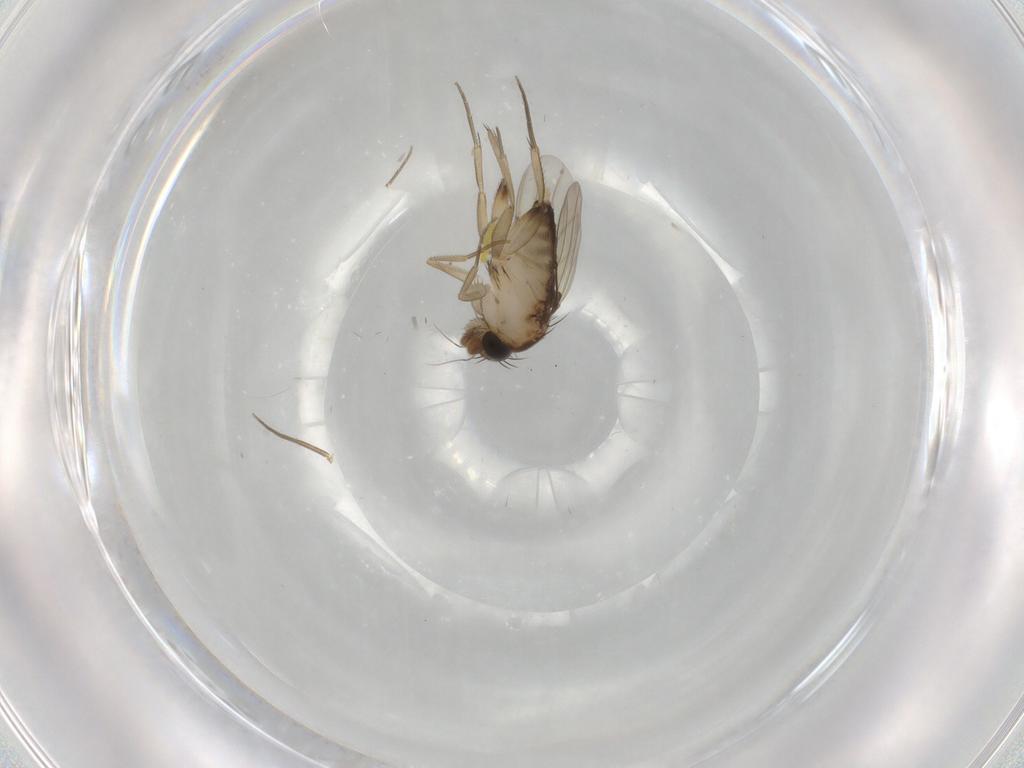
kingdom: Animalia
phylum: Arthropoda
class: Insecta
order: Diptera
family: Phoridae
